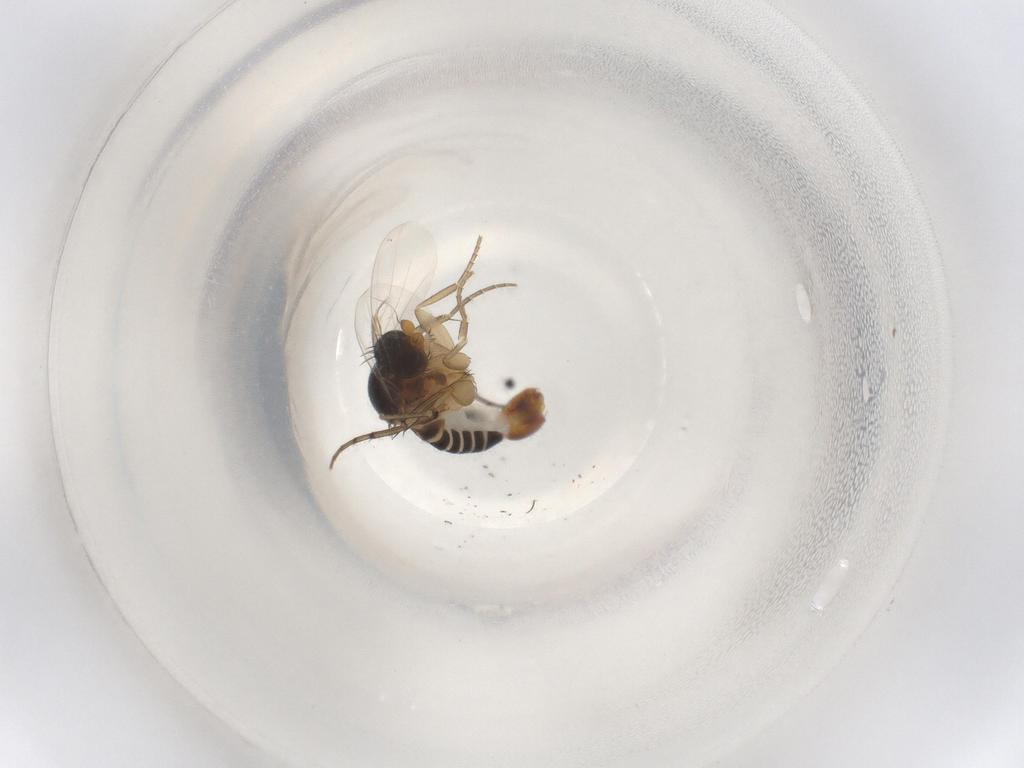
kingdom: Animalia
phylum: Arthropoda
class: Insecta
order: Diptera
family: Phoridae
